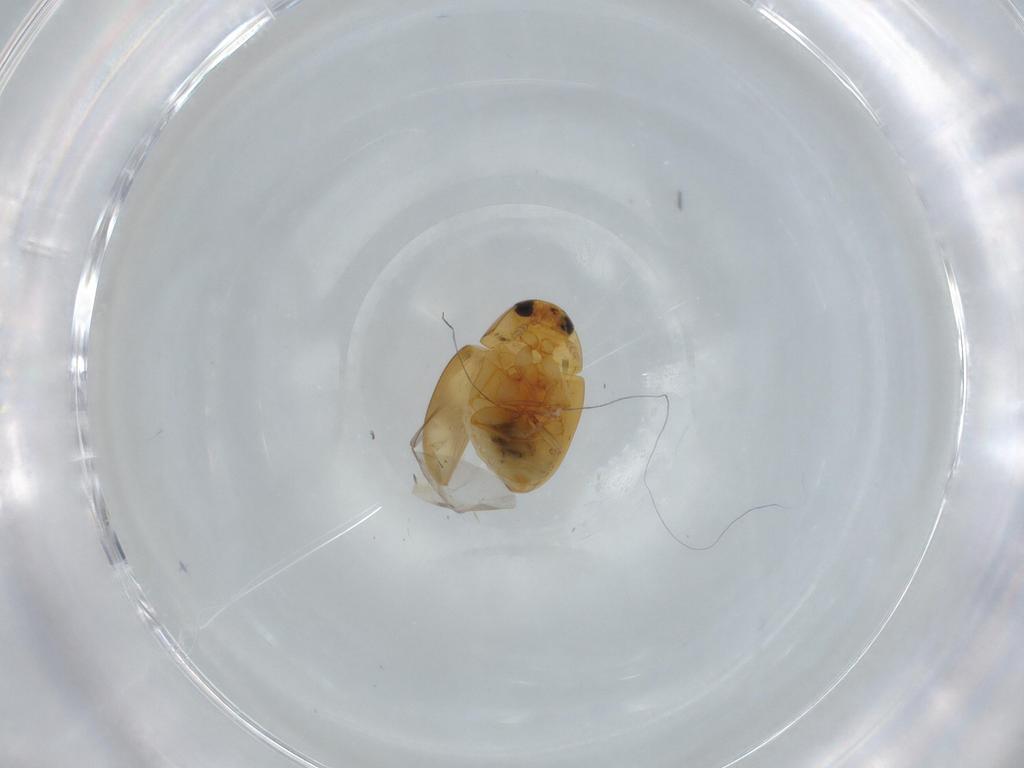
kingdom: Animalia
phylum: Arthropoda
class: Insecta
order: Coleoptera
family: Phalacridae
